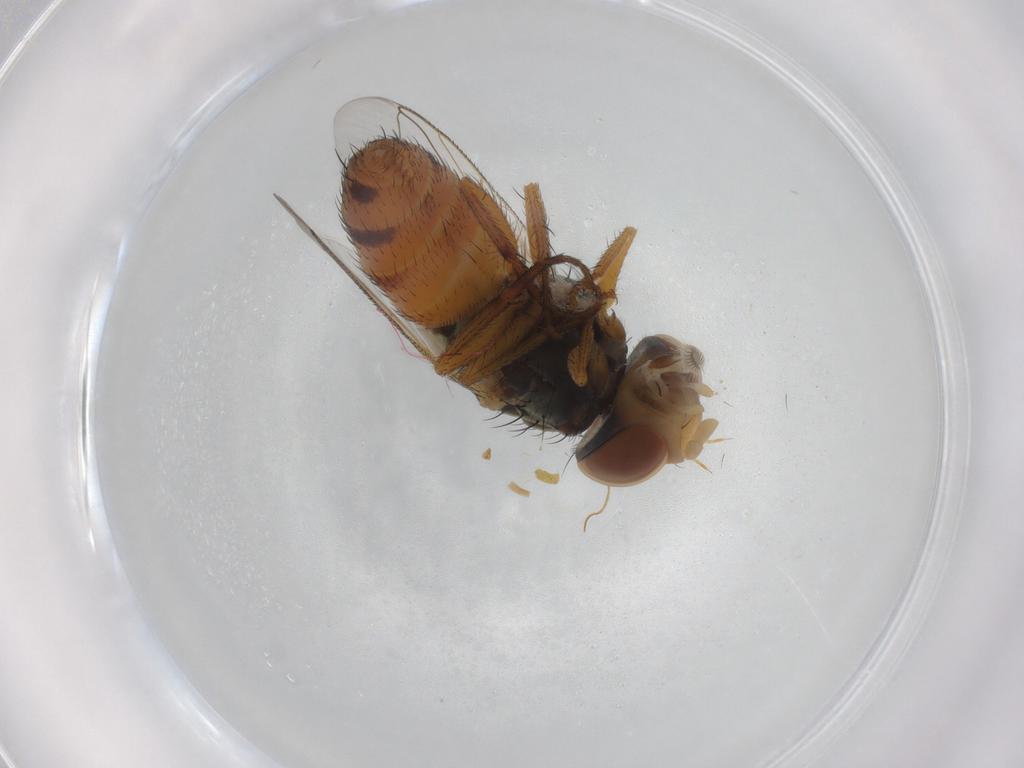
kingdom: Animalia
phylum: Arthropoda
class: Insecta
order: Diptera
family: Sarcophagidae
